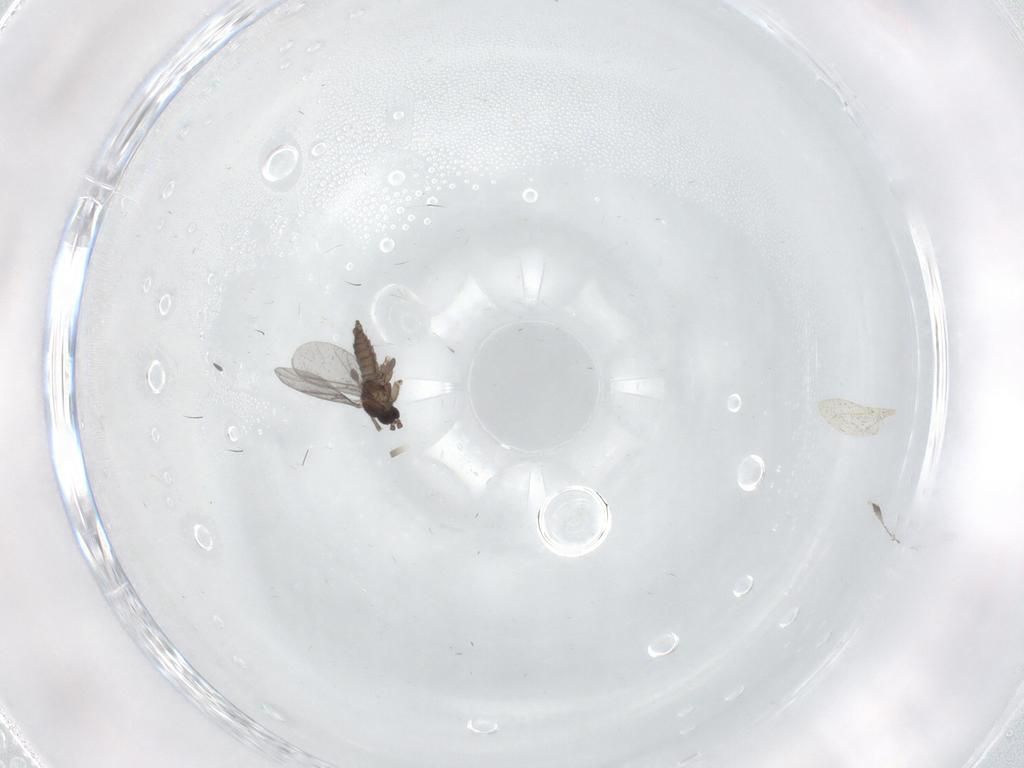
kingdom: Animalia
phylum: Arthropoda
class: Insecta
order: Diptera
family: Sciaridae
